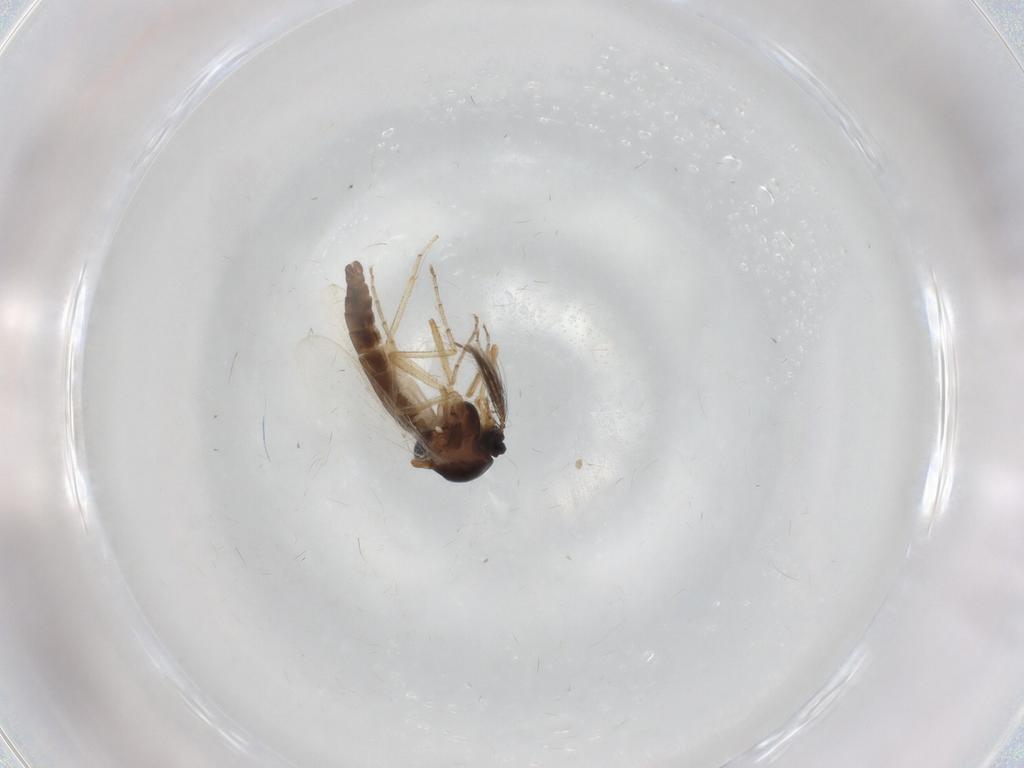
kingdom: Animalia
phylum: Arthropoda
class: Insecta
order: Diptera
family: Ceratopogonidae
